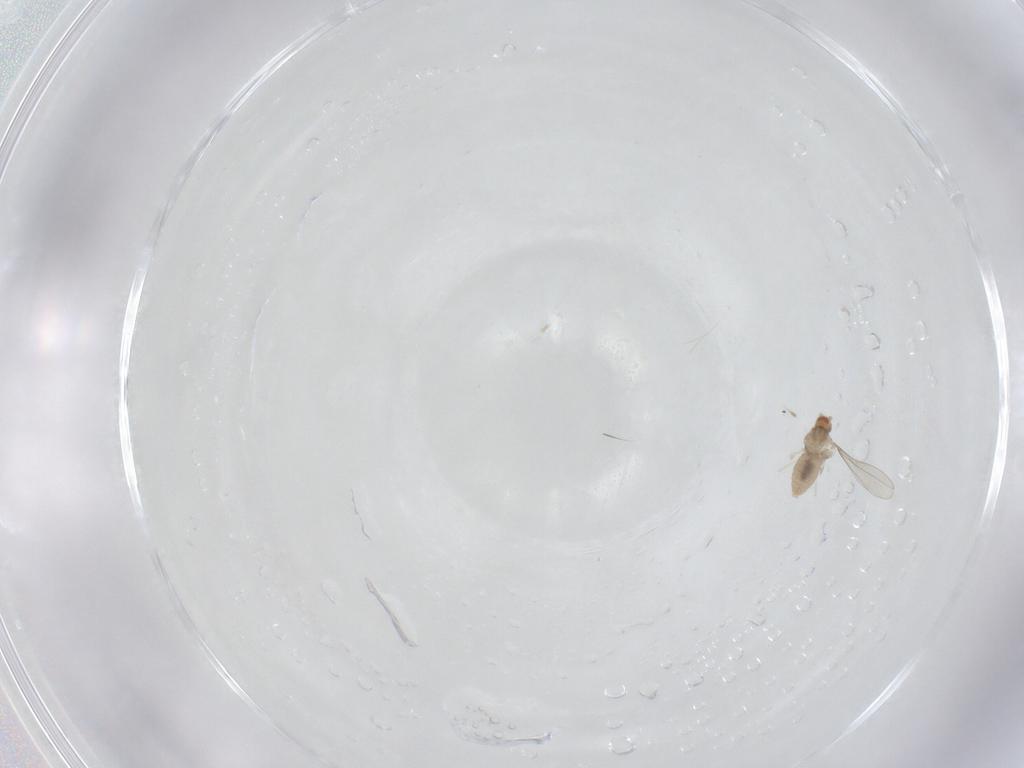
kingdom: Animalia
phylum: Arthropoda
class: Insecta
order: Diptera
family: Cecidomyiidae
